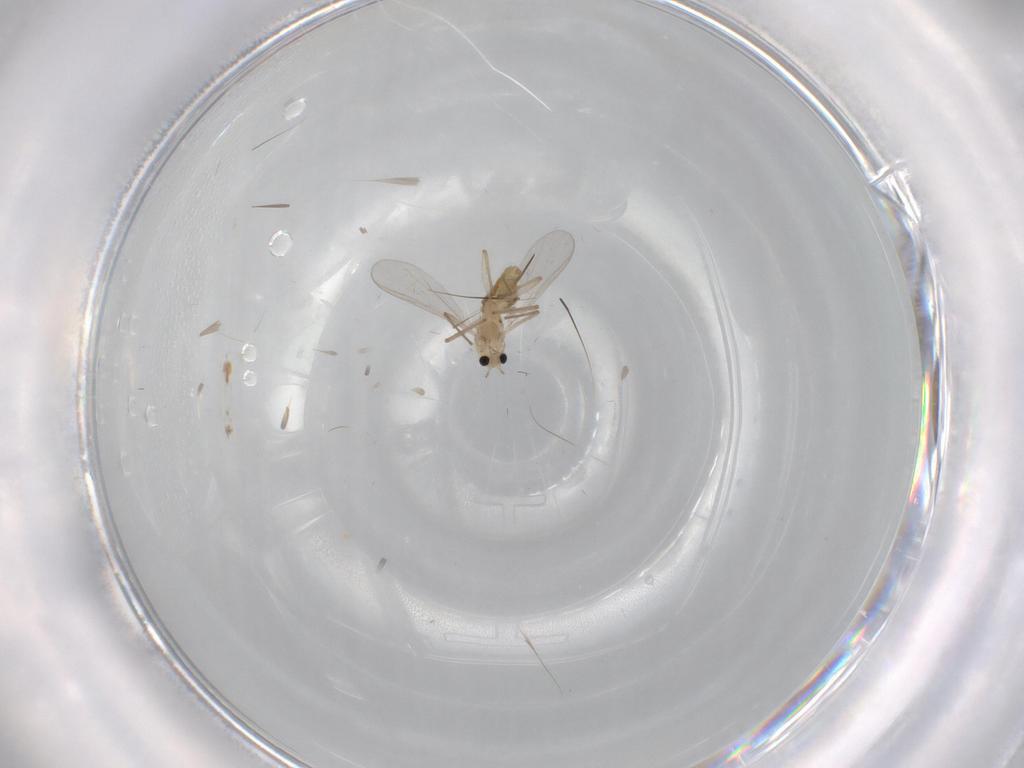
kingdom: Animalia
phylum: Arthropoda
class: Insecta
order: Diptera
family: Chironomidae
